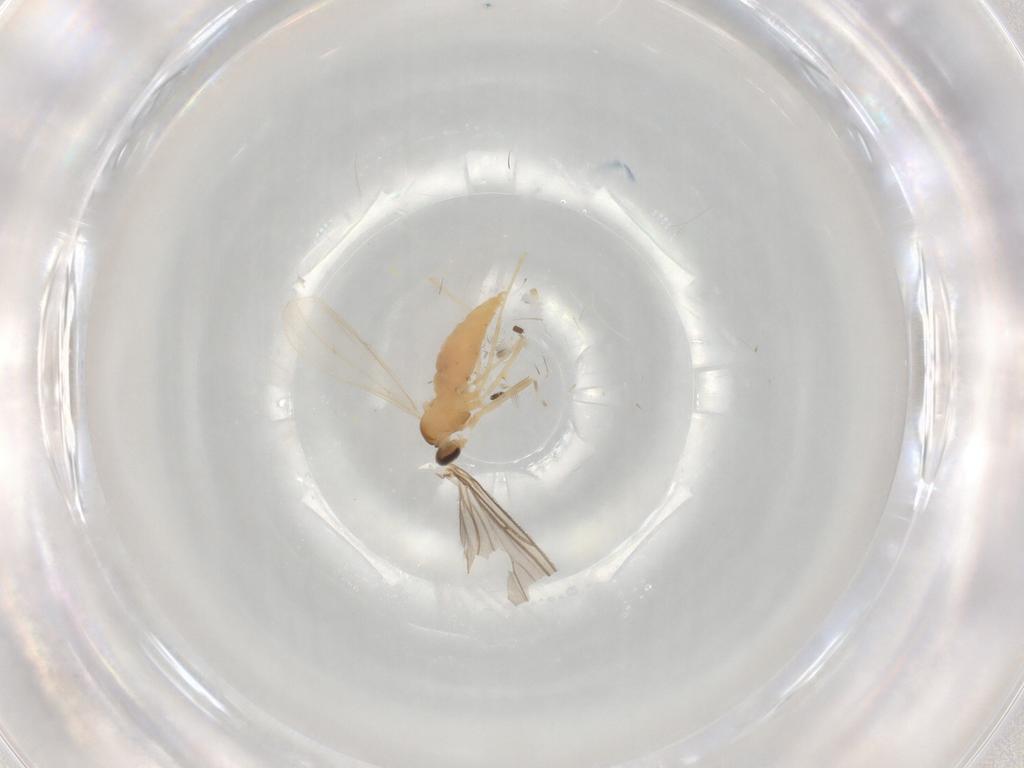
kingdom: Animalia
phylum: Arthropoda
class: Insecta
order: Diptera
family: Cecidomyiidae
